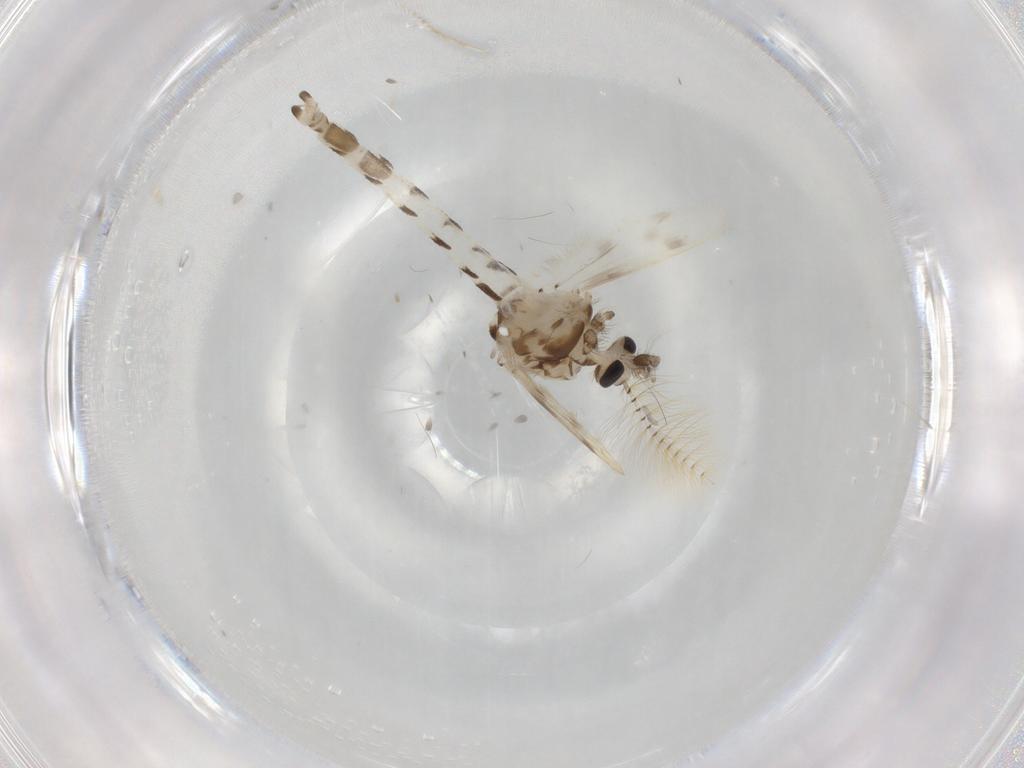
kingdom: Animalia
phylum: Arthropoda
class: Insecta
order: Diptera
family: Corethrellidae
